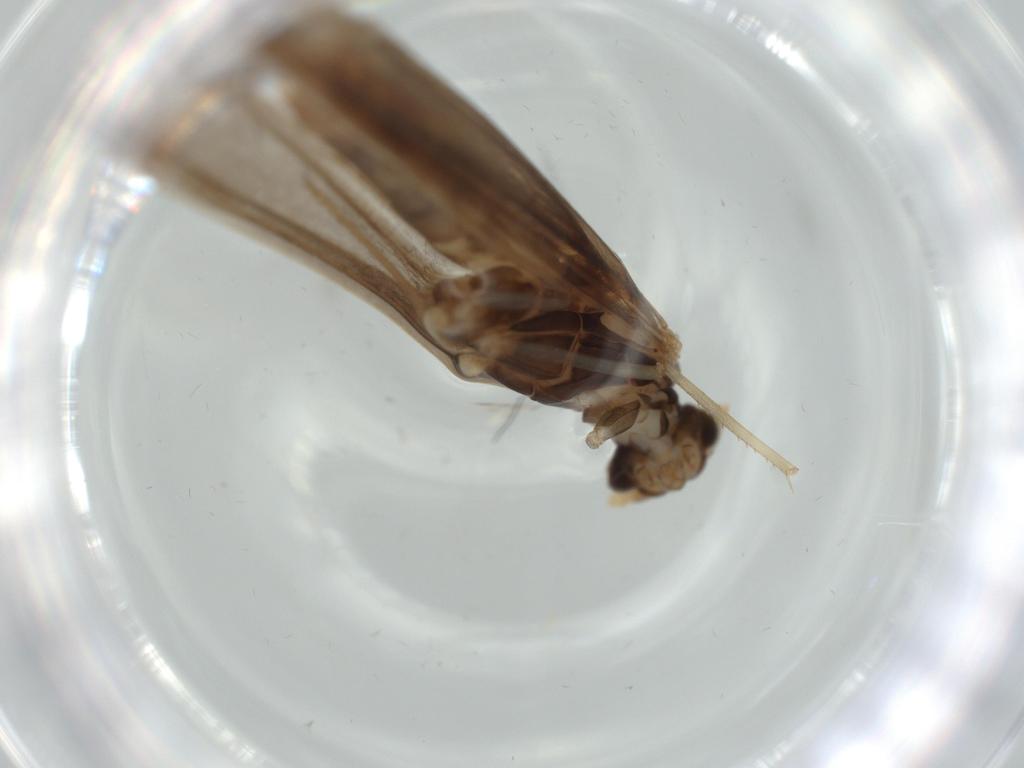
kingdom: Animalia
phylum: Arthropoda
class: Insecta
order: Trichoptera
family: Leptoceridae
